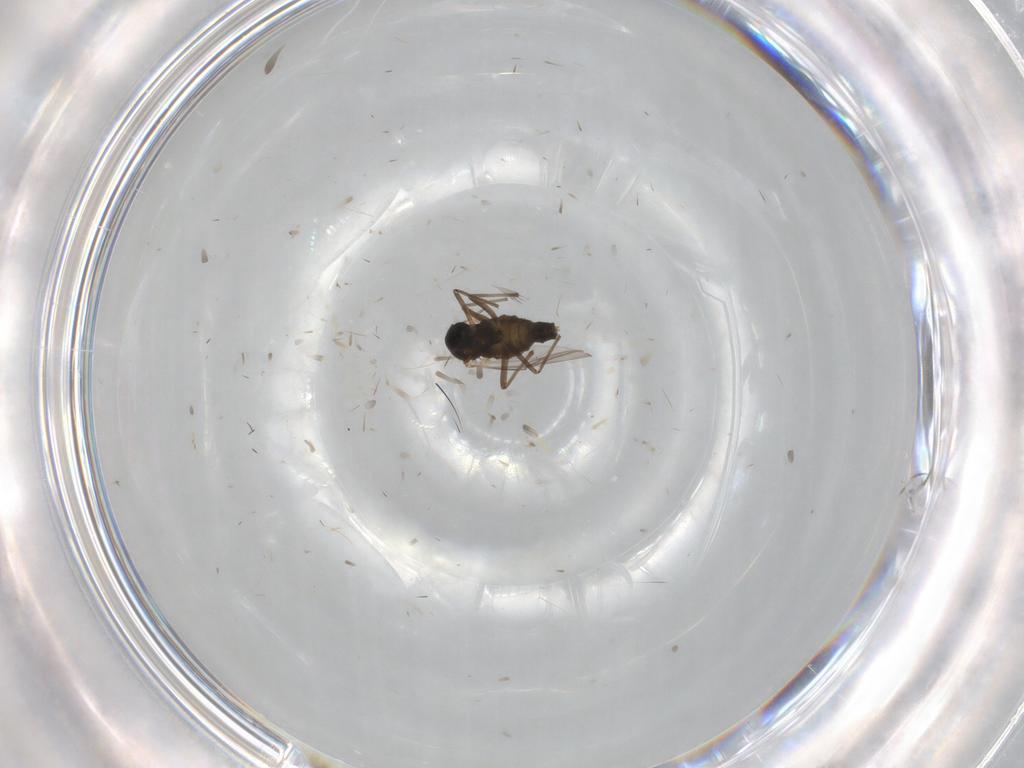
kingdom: Animalia
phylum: Arthropoda
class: Insecta
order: Diptera
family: Chironomidae
